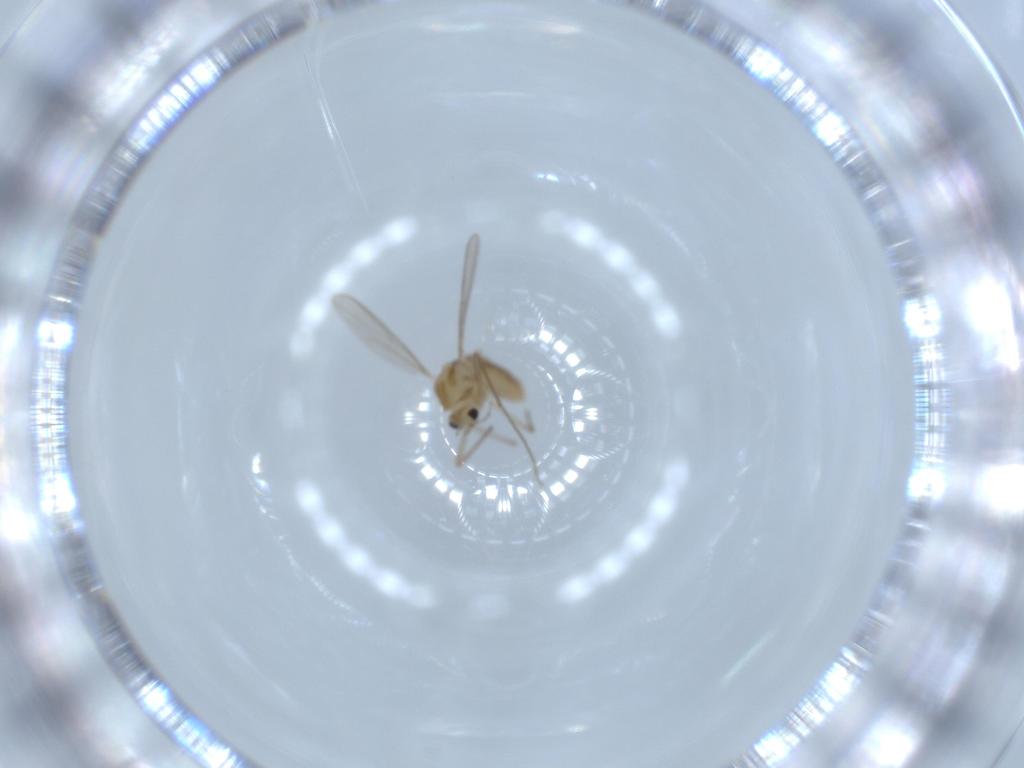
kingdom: Animalia
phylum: Arthropoda
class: Insecta
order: Diptera
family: Chironomidae
